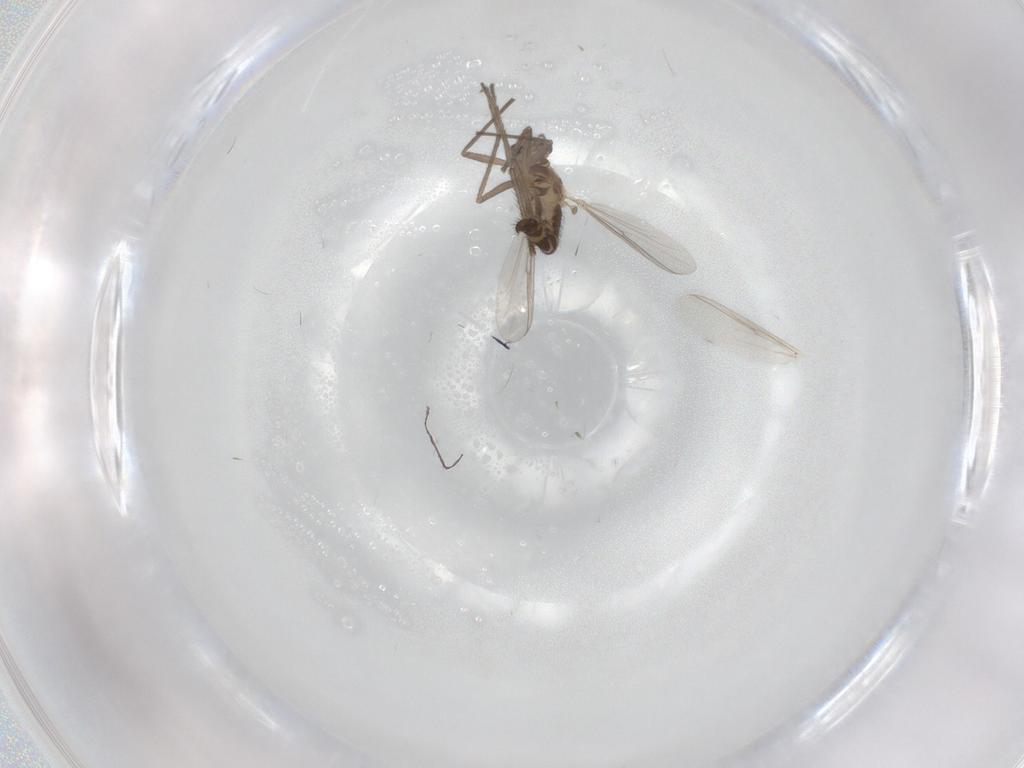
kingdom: Animalia
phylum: Arthropoda
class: Insecta
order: Diptera
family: Chironomidae
